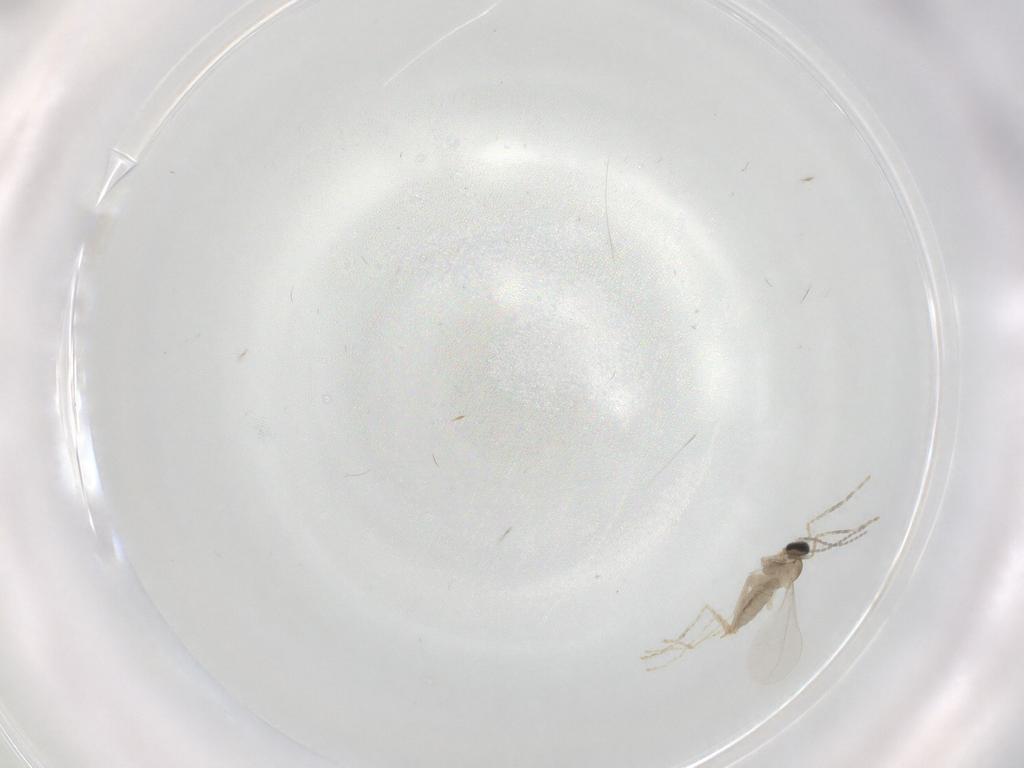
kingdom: Animalia
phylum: Arthropoda
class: Insecta
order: Diptera
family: Cecidomyiidae
